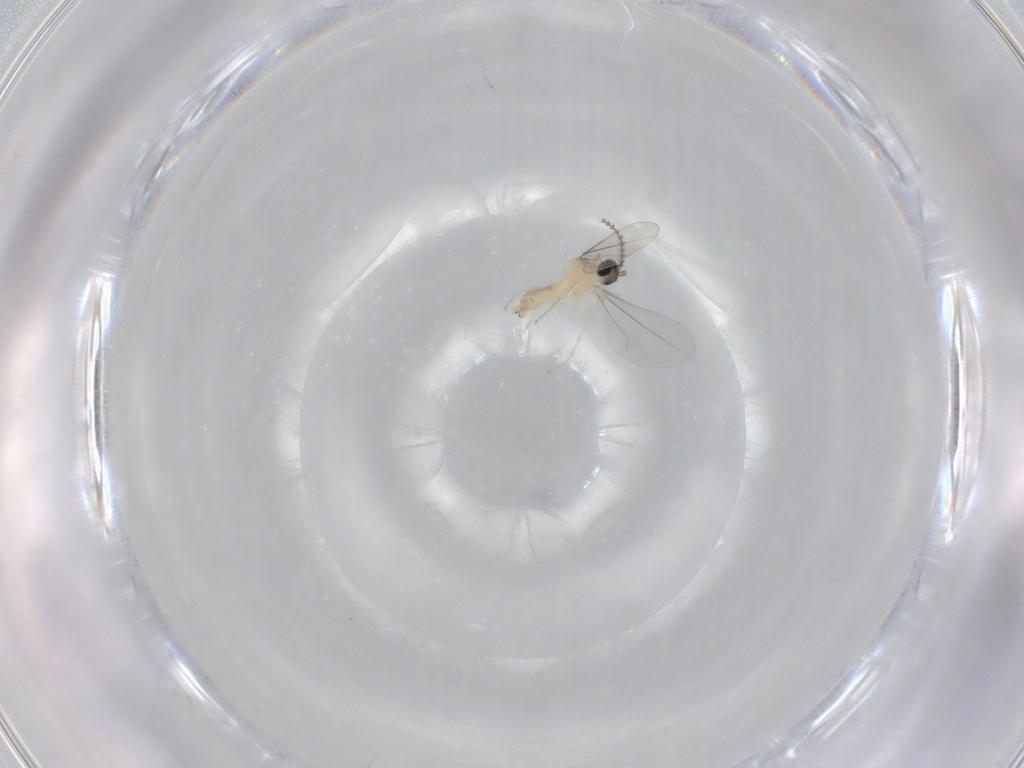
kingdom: Animalia
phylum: Arthropoda
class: Insecta
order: Diptera
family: Cecidomyiidae
